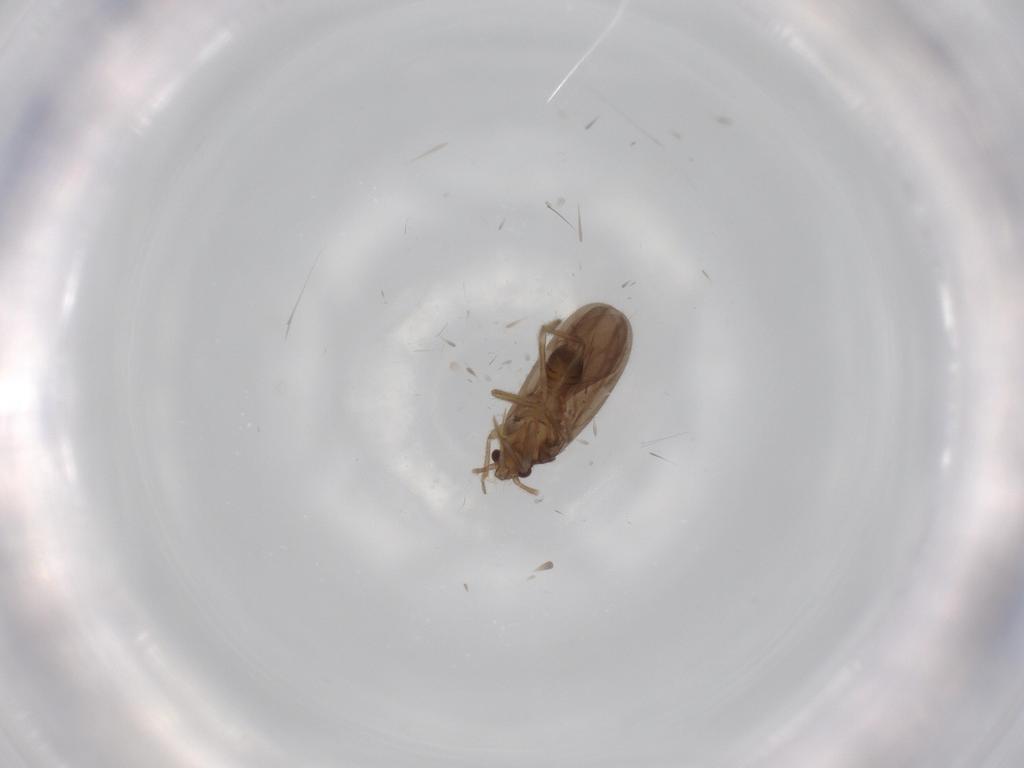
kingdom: Animalia
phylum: Arthropoda
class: Insecta
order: Hemiptera
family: Ceratocombidae
